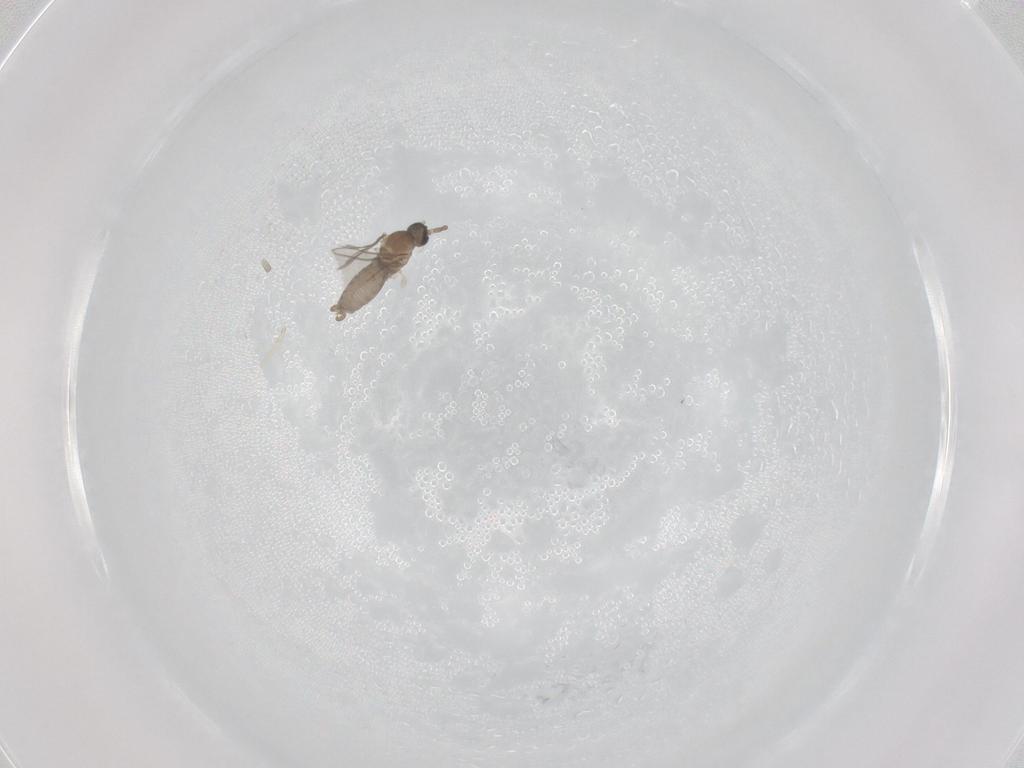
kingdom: Animalia
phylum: Arthropoda
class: Insecta
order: Diptera
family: Cecidomyiidae
